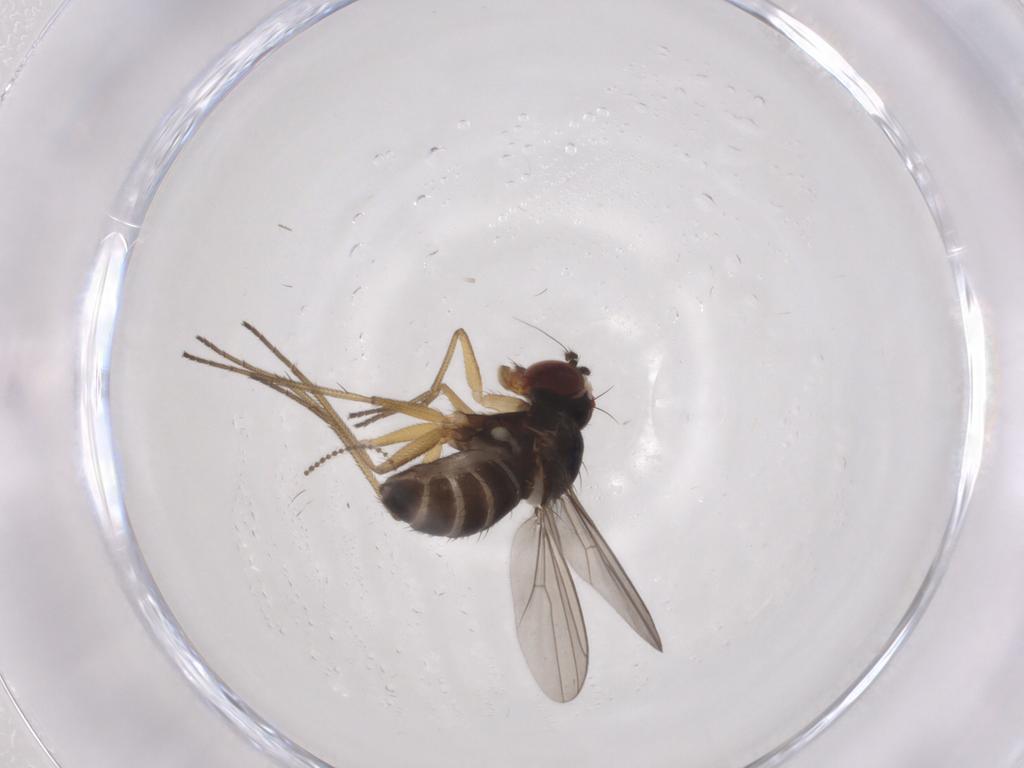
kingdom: Animalia
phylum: Arthropoda
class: Insecta
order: Diptera
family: Dolichopodidae
